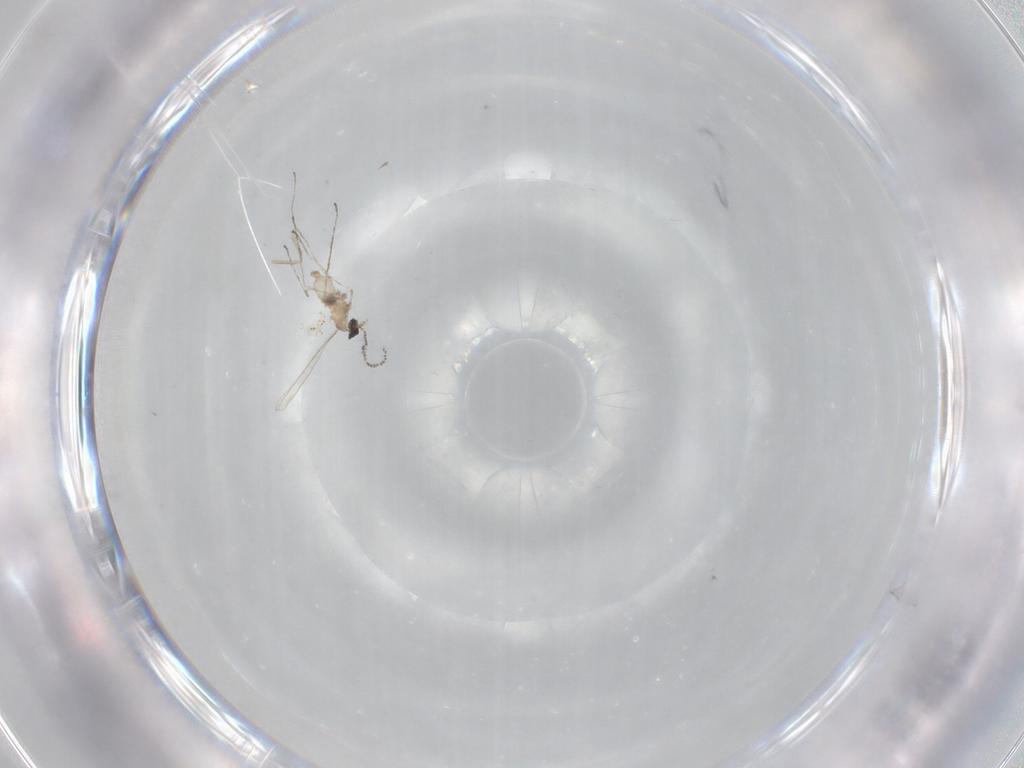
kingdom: Animalia
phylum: Arthropoda
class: Insecta
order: Diptera
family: Cecidomyiidae
